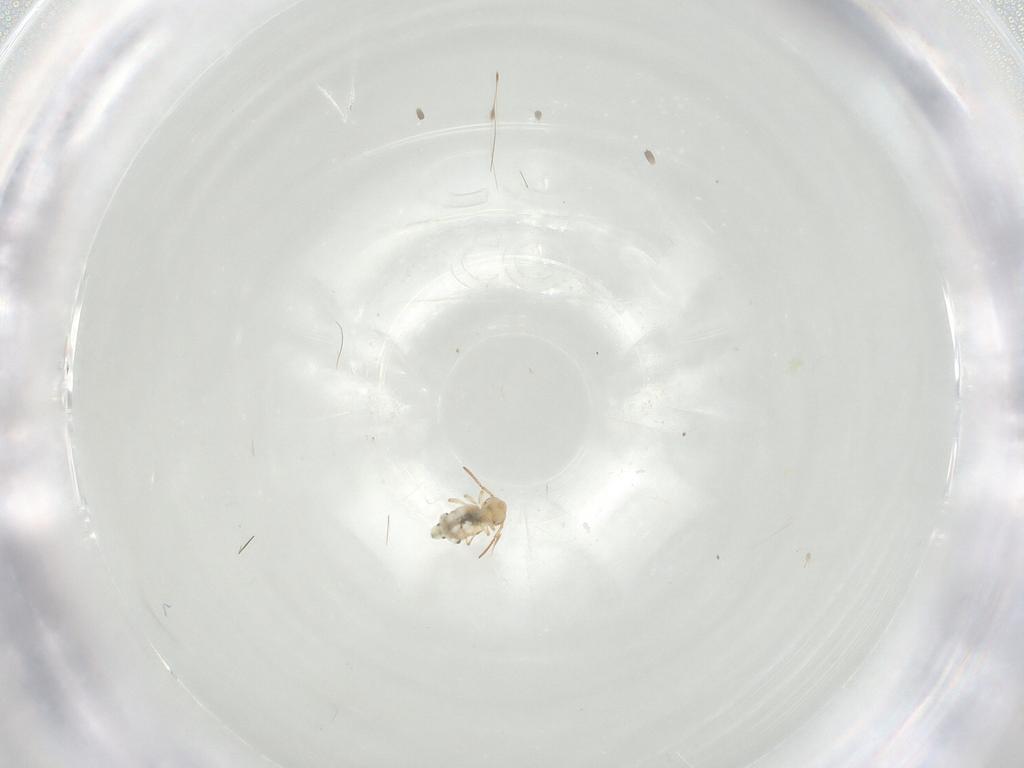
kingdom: Animalia
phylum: Arthropoda
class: Collembola
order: Symphypleona
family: Bourletiellidae
